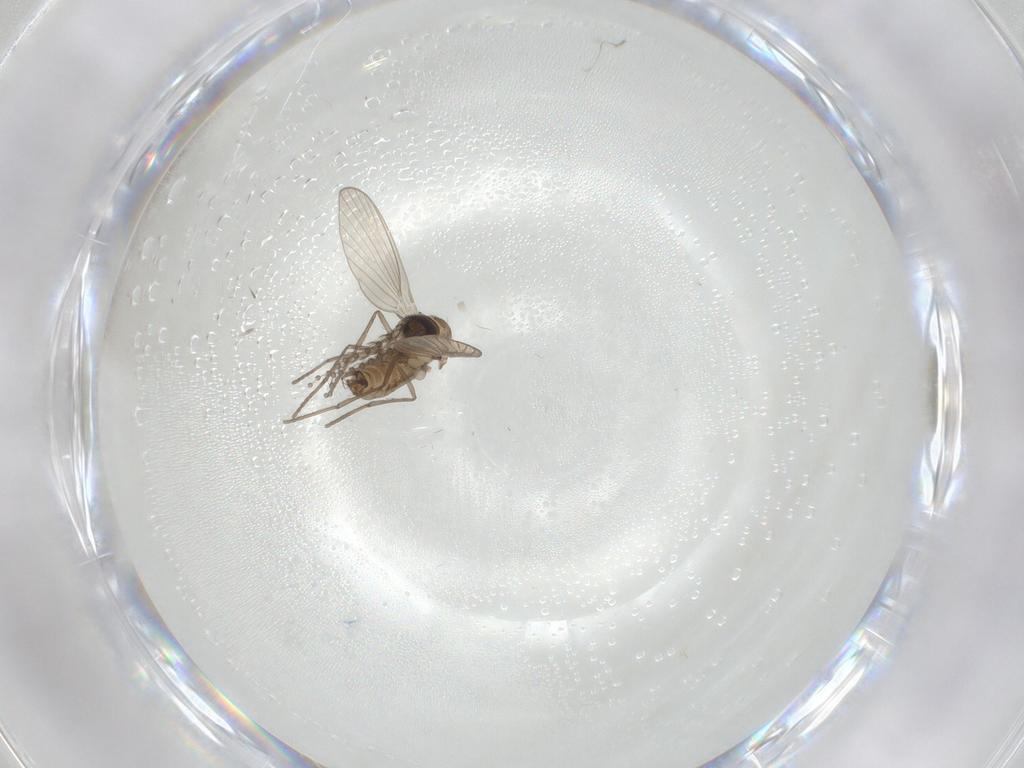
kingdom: Animalia
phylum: Arthropoda
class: Insecta
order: Diptera
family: Psychodidae
